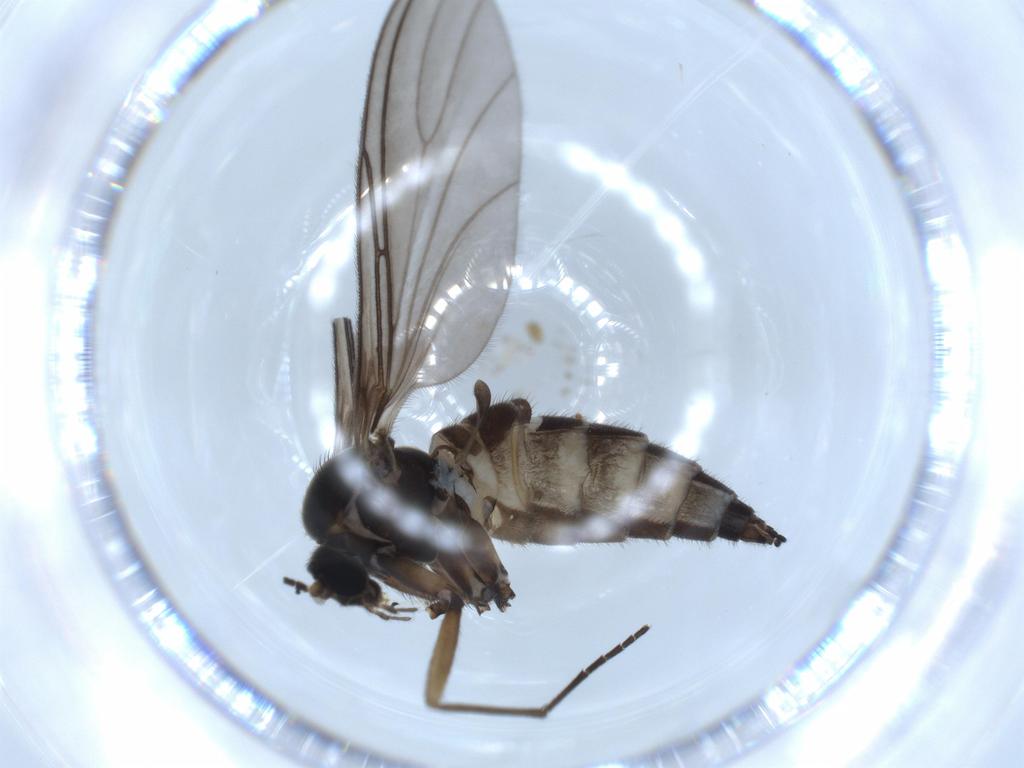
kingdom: Animalia
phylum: Arthropoda
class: Insecta
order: Diptera
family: Sciaridae
